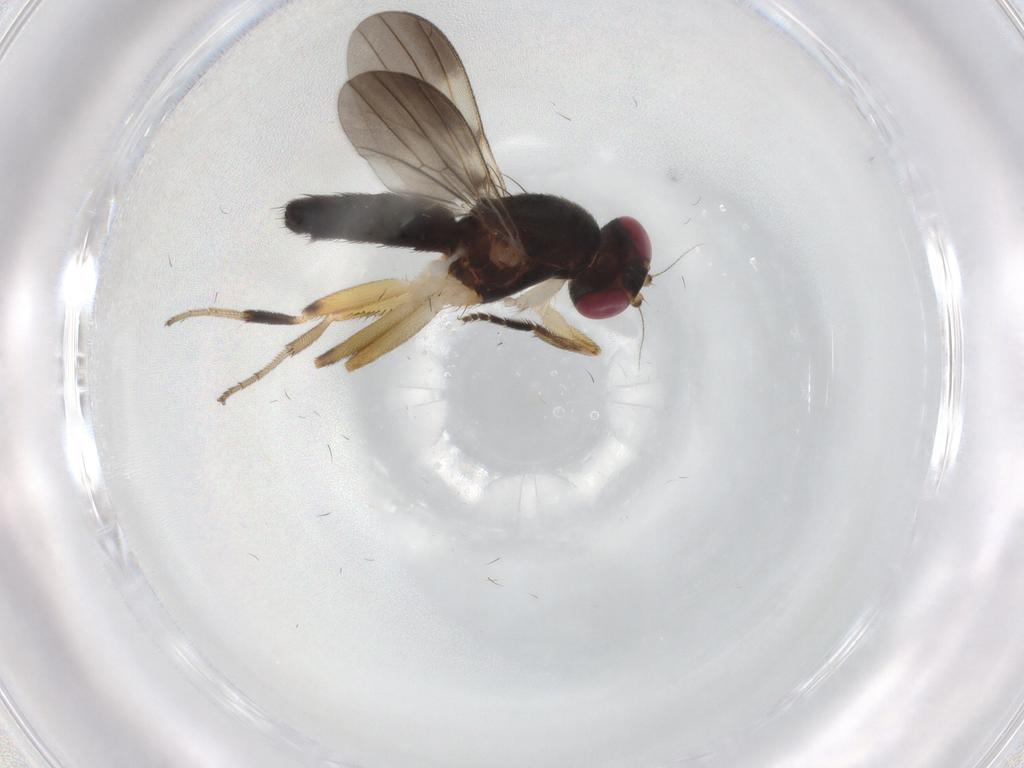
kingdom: Animalia
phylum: Arthropoda
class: Insecta
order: Diptera
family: Clusiidae
